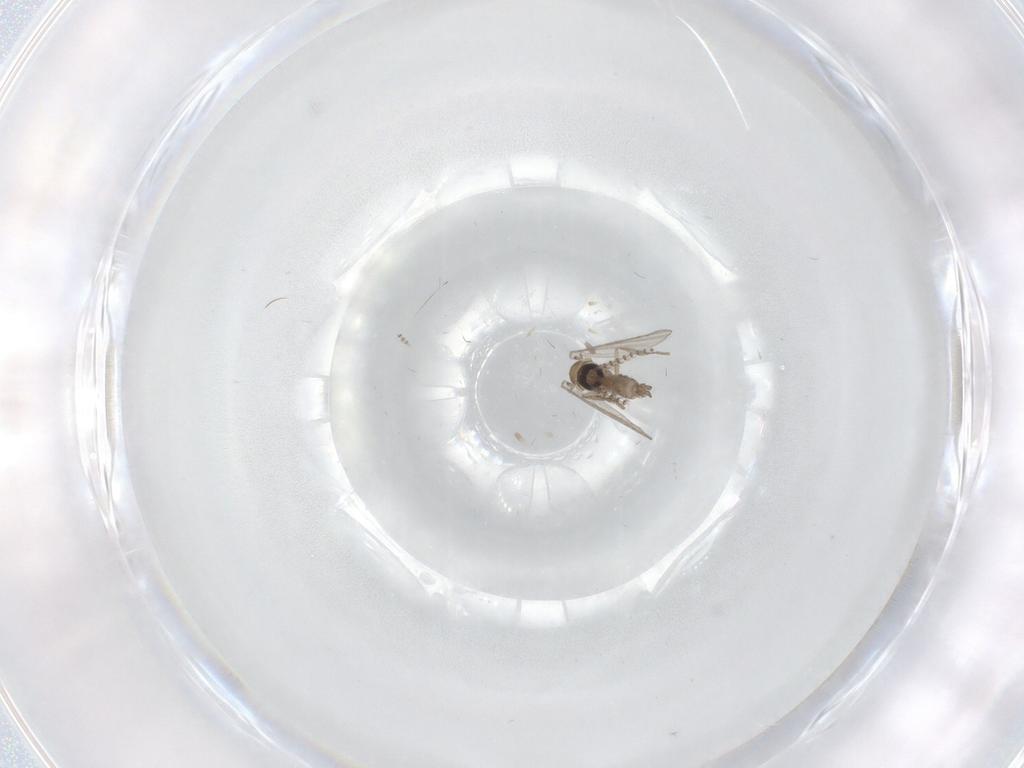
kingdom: Animalia
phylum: Arthropoda
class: Insecta
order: Diptera
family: Psychodidae
